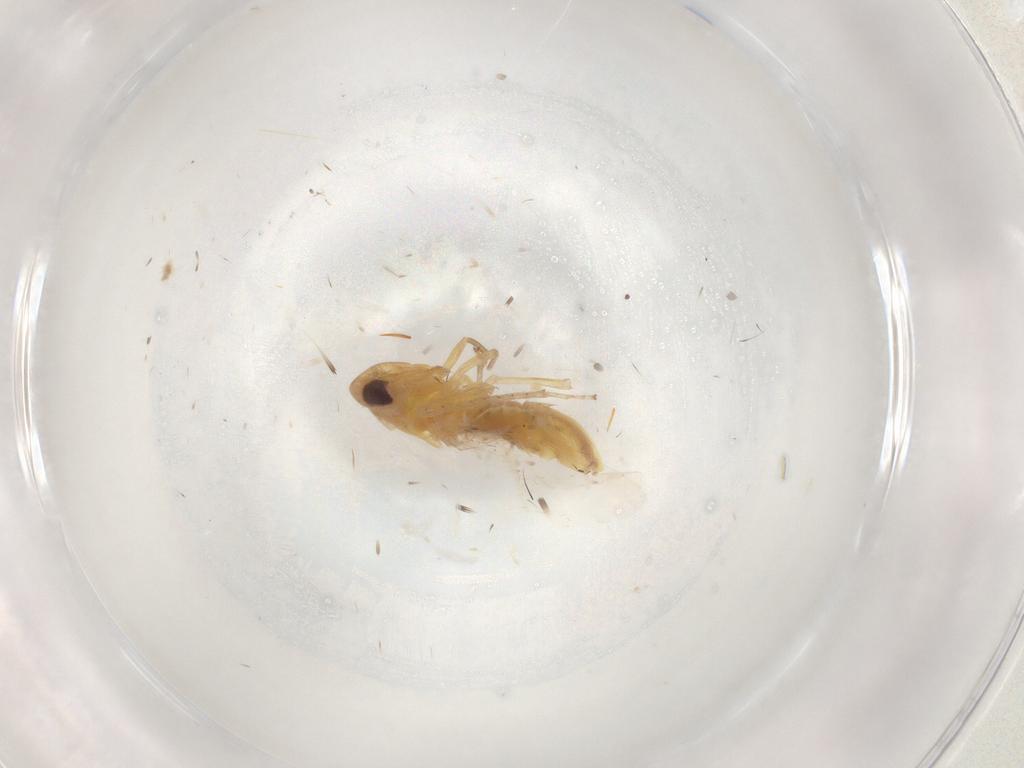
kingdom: Animalia
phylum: Arthropoda
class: Insecta
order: Hemiptera
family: Cicadellidae
